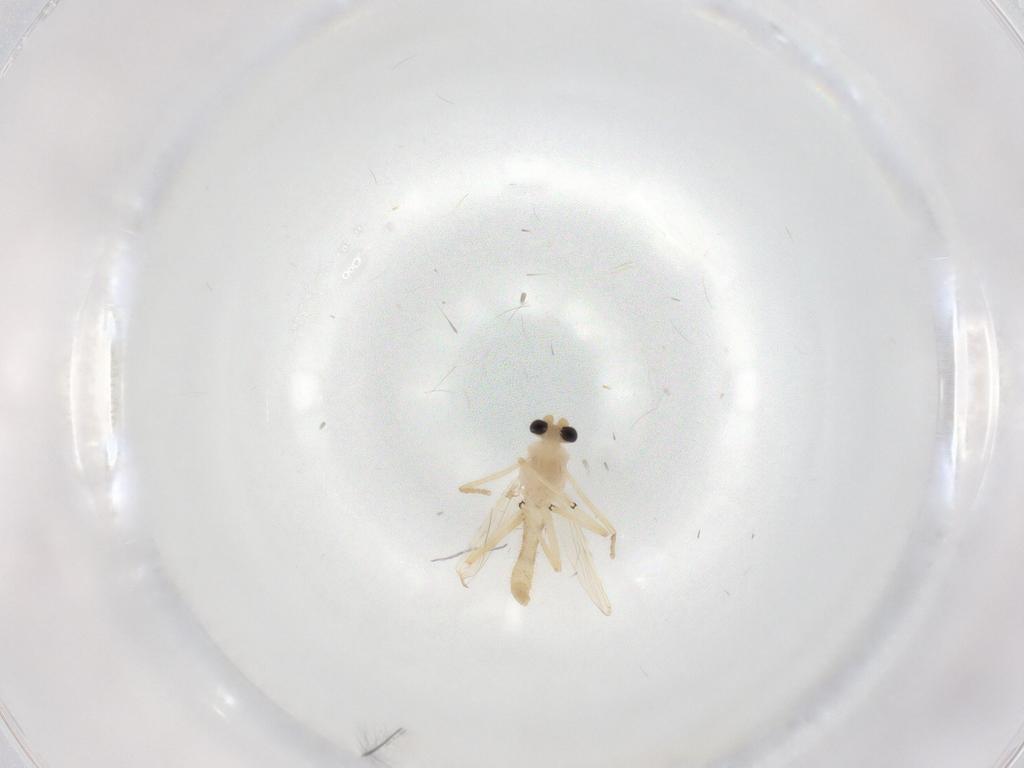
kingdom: Animalia
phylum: Arthropoda
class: Insecta
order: Diptera
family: Chironomidae
